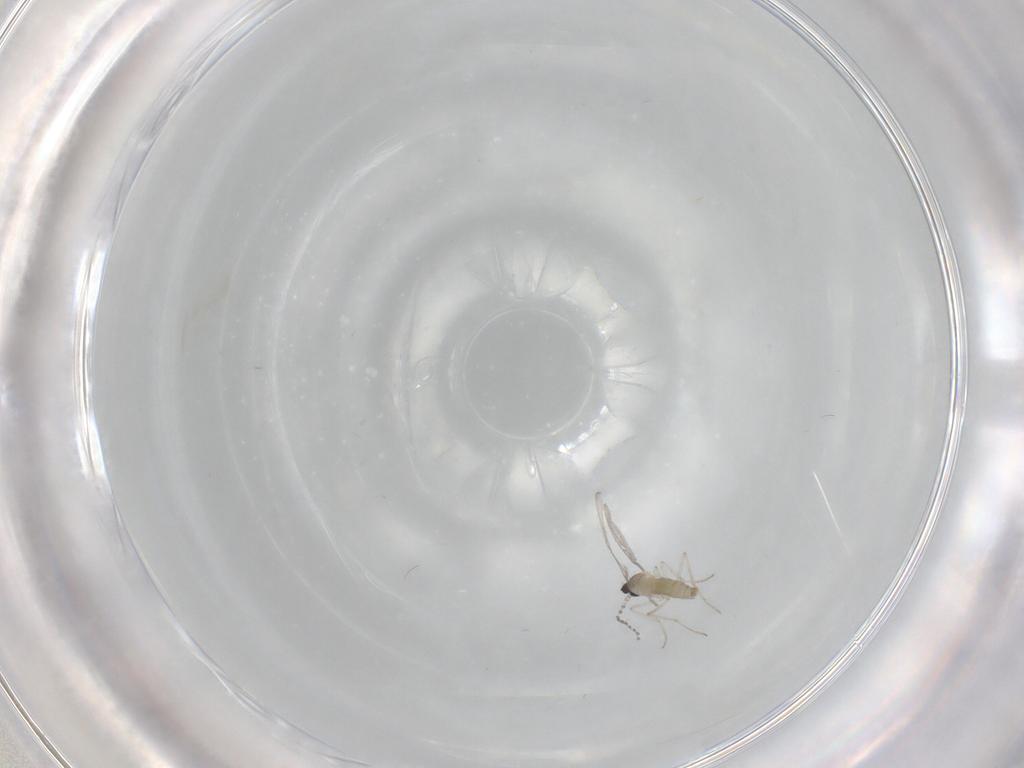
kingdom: Animalia
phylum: Arthropoda
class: Insecta
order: Diptera
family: Cecidomyiidae
